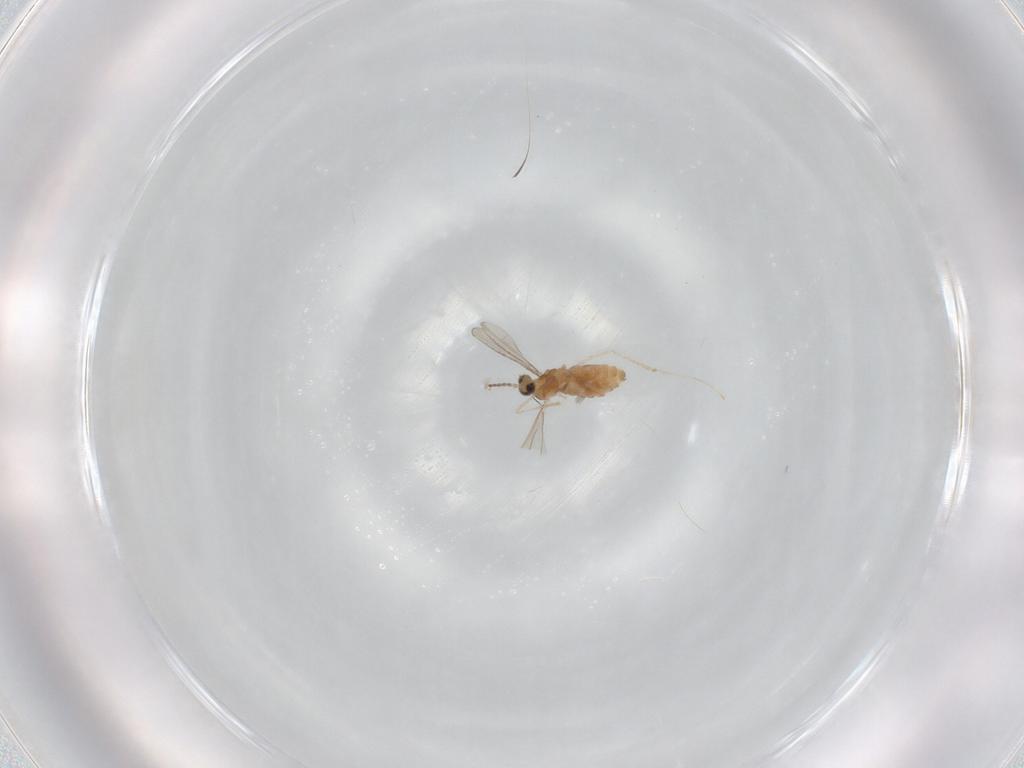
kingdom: Animalia
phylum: Arthropoda
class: Insecta
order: Diptera
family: Cecidomyiidae
